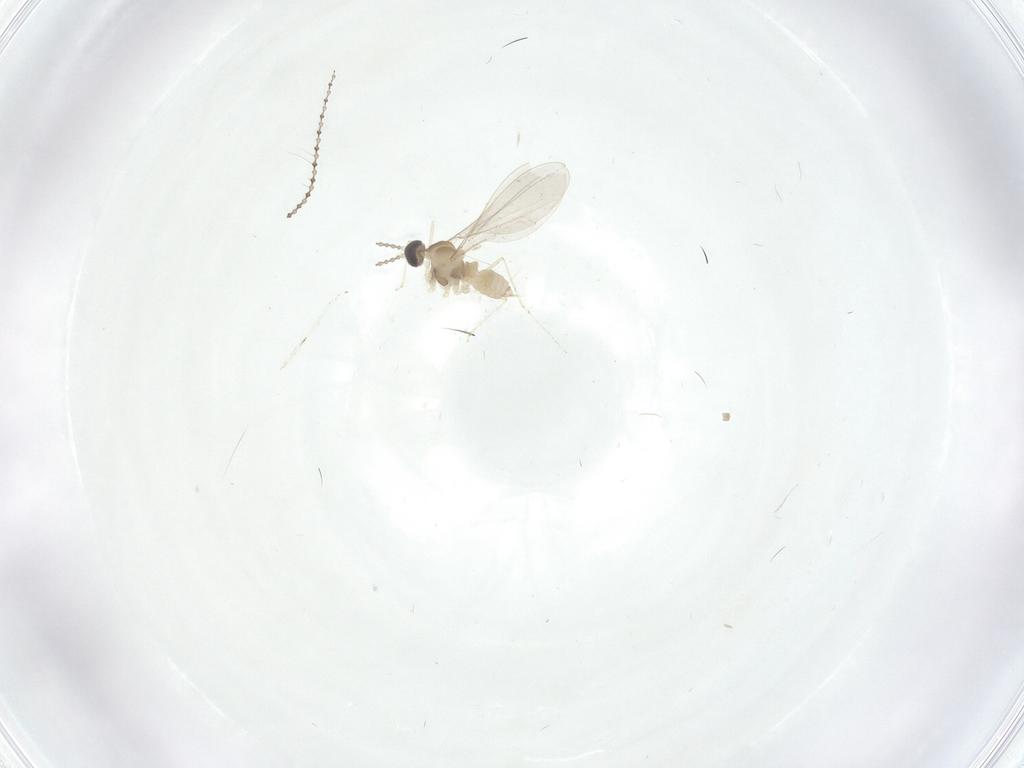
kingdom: Animalia
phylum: Arthropoda
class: Insecta
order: Diptera
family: Cecidomyiidae
